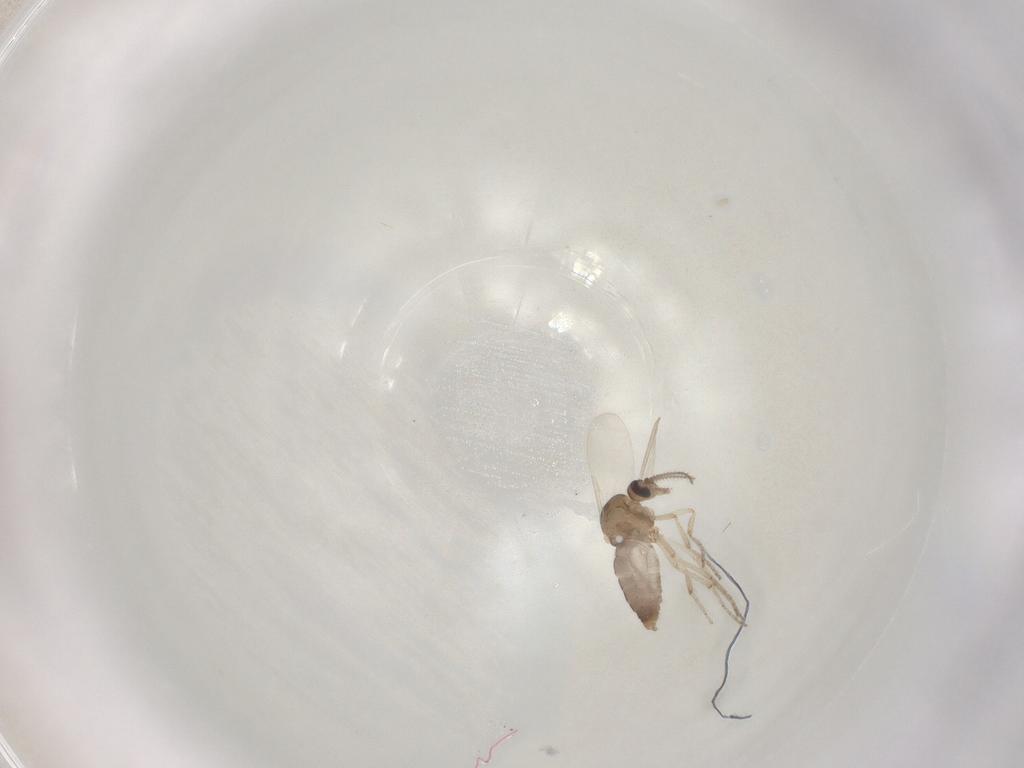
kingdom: Animalia
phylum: Arthropoda
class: Insecta
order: Diptera
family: Ceratopogonidae
